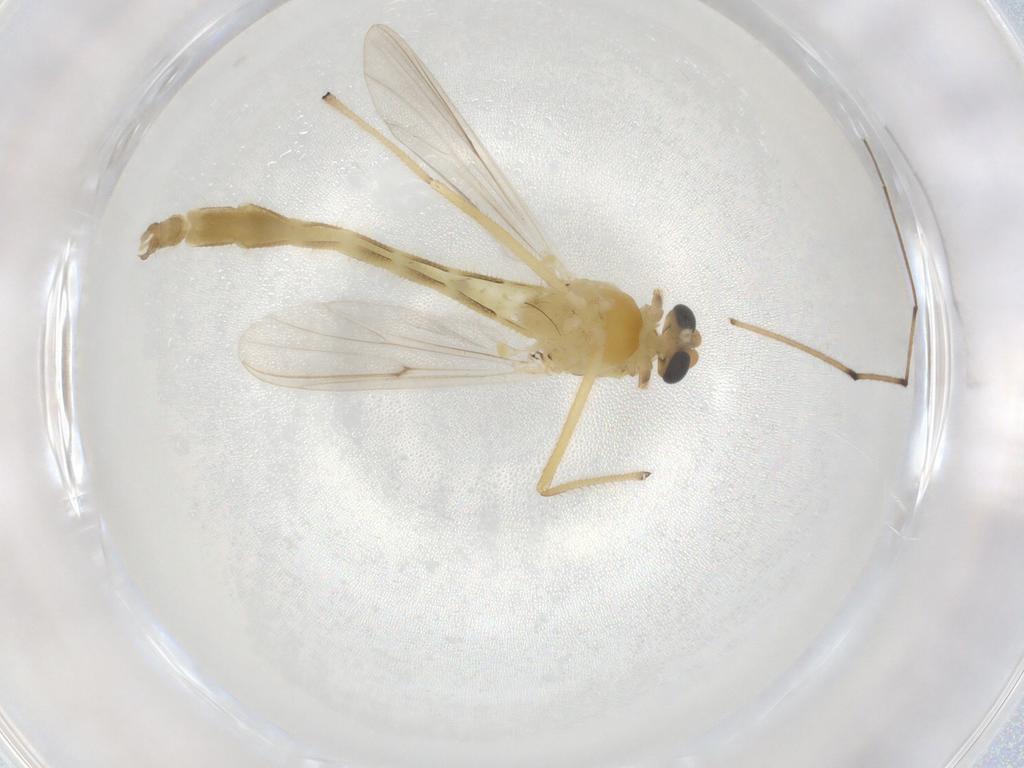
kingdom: Animalia
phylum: Arthropoda
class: Insecta
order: Diptera
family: Chironomidae
